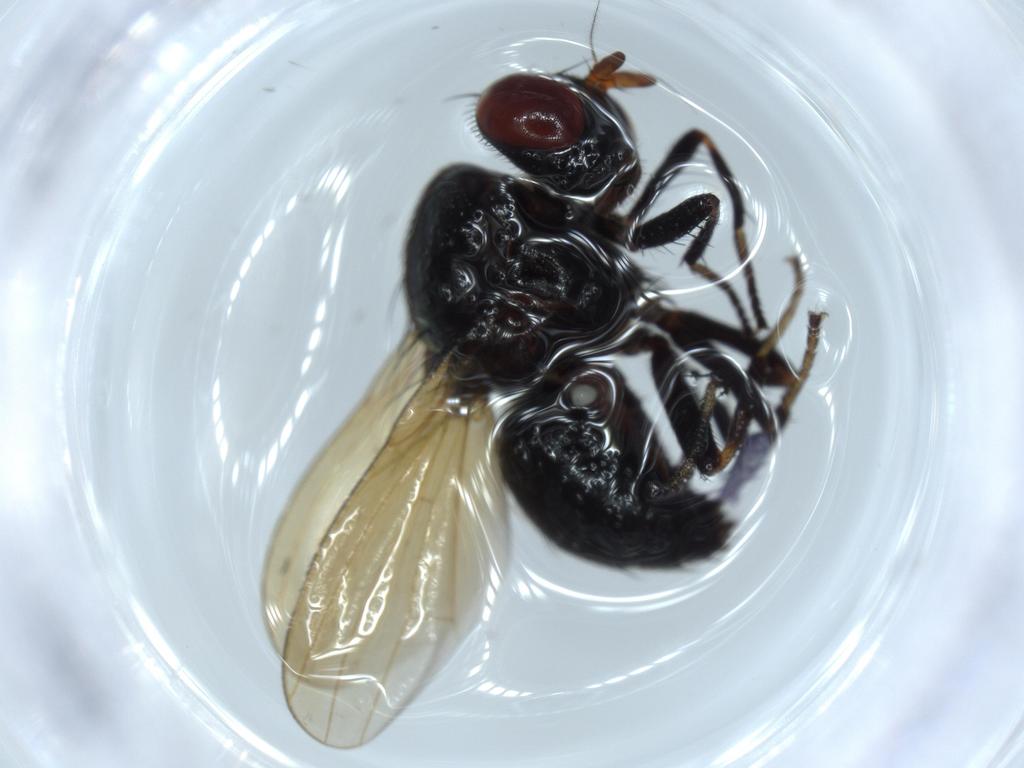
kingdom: Animalia
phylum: Arthropoda
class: Insecta
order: Diptera
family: Lauxaniidae
